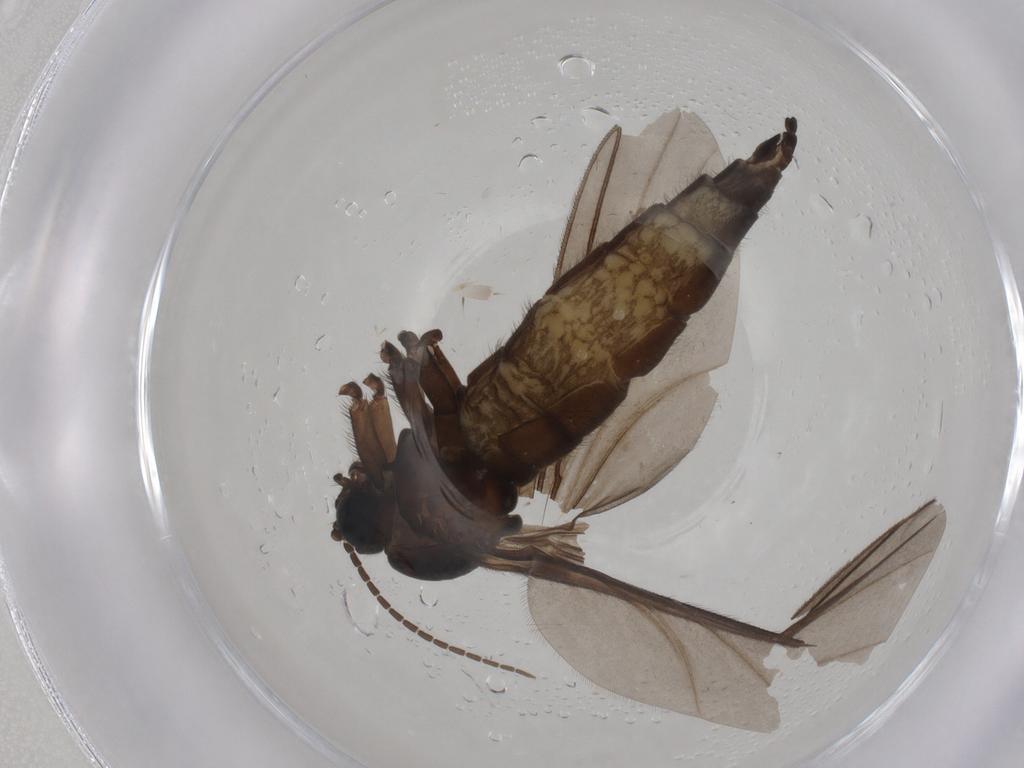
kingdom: Animalia
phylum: Arthropoda
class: Insecta
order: Diptera
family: Sciaridae
